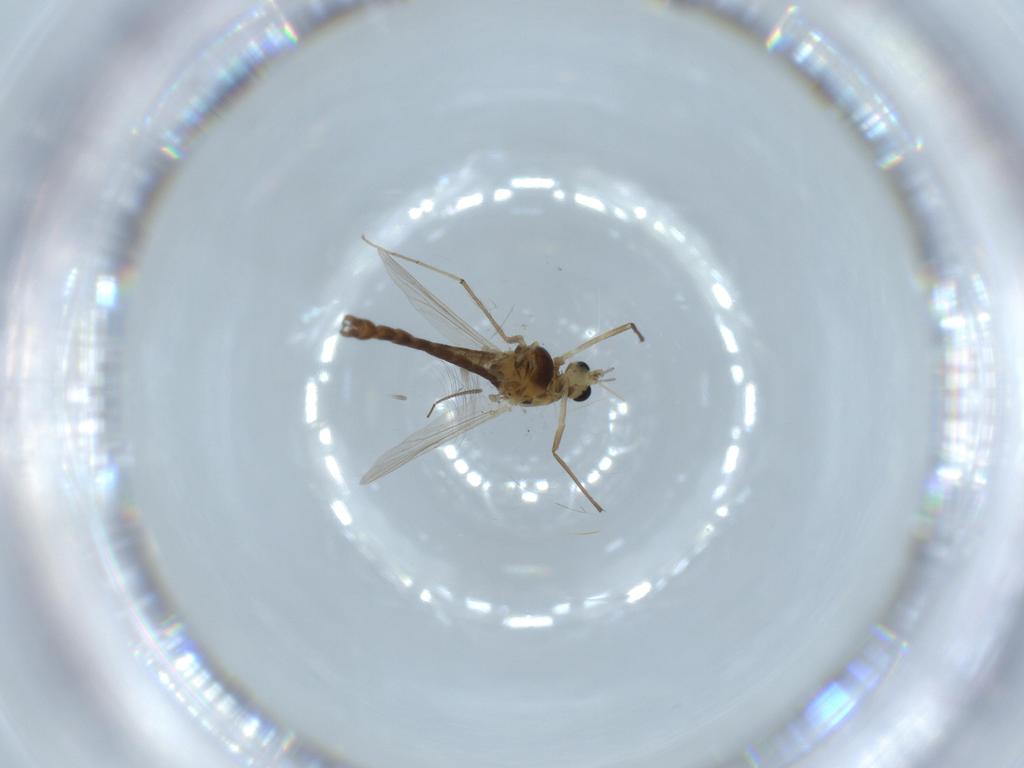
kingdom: Animalia
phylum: Arthropoda
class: Insecta
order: Diptera
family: Chironomidae
